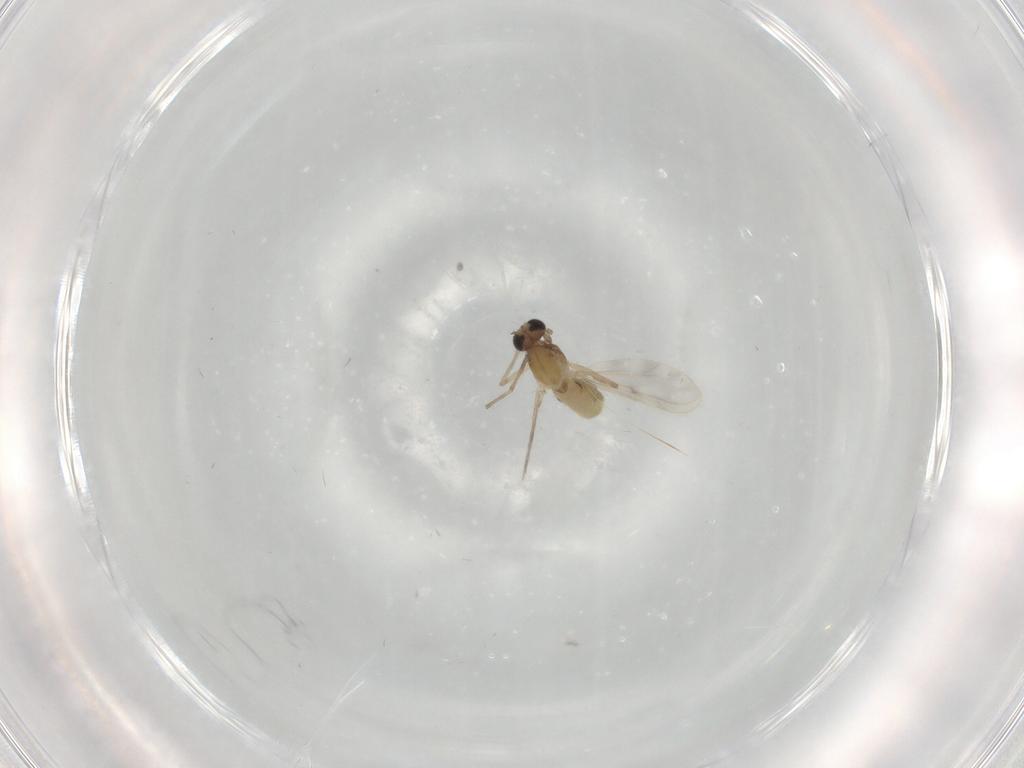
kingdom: Animalia
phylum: Arthropoda
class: Insecta
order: Diptera
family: Chironomidae
